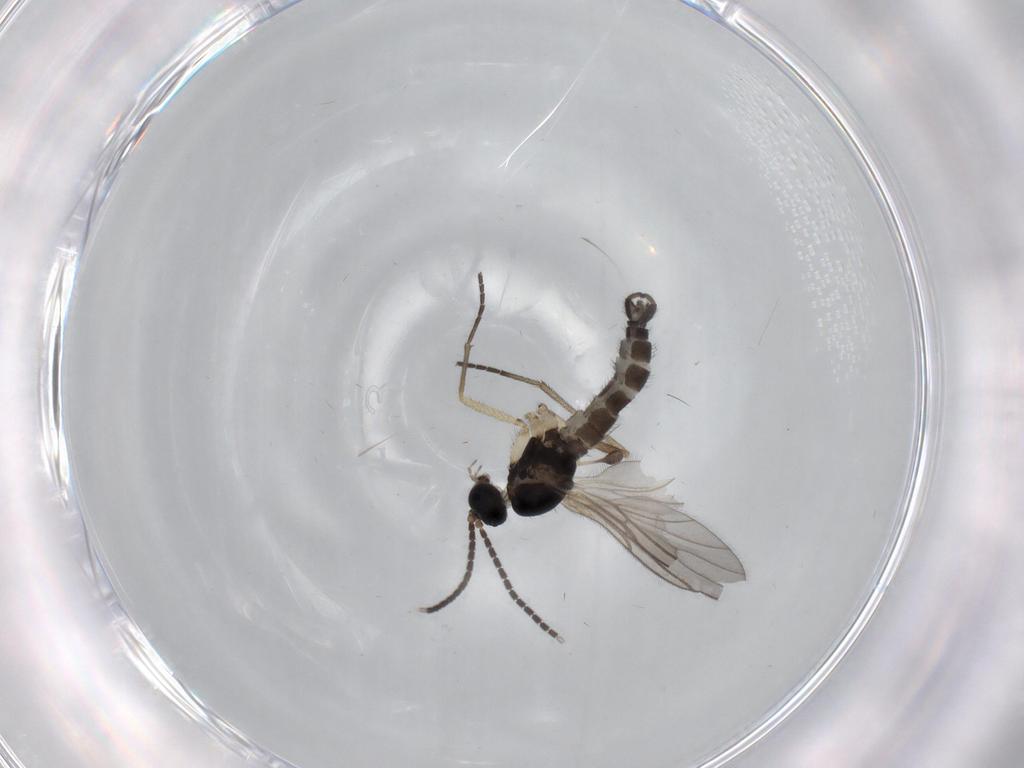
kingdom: Animalia
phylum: Arthropoda
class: Insecta
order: Diptera
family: Sciaridae
